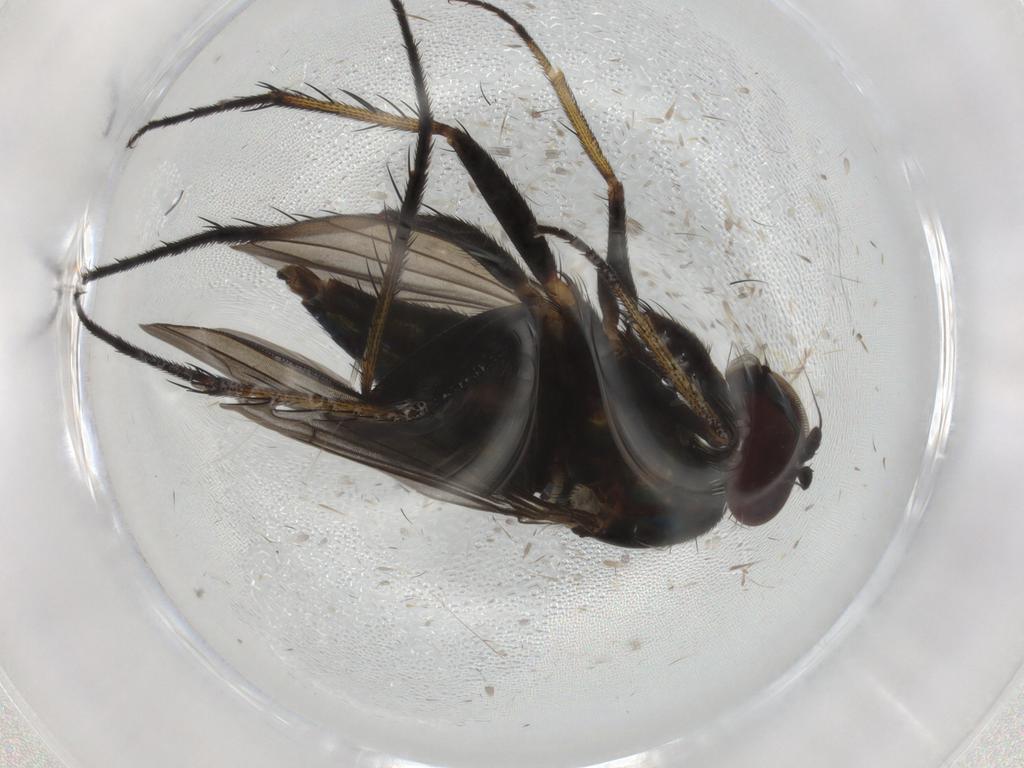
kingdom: Animalia
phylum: Arthropoda
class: Insecta
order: Diptera
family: Dolichopodidae
